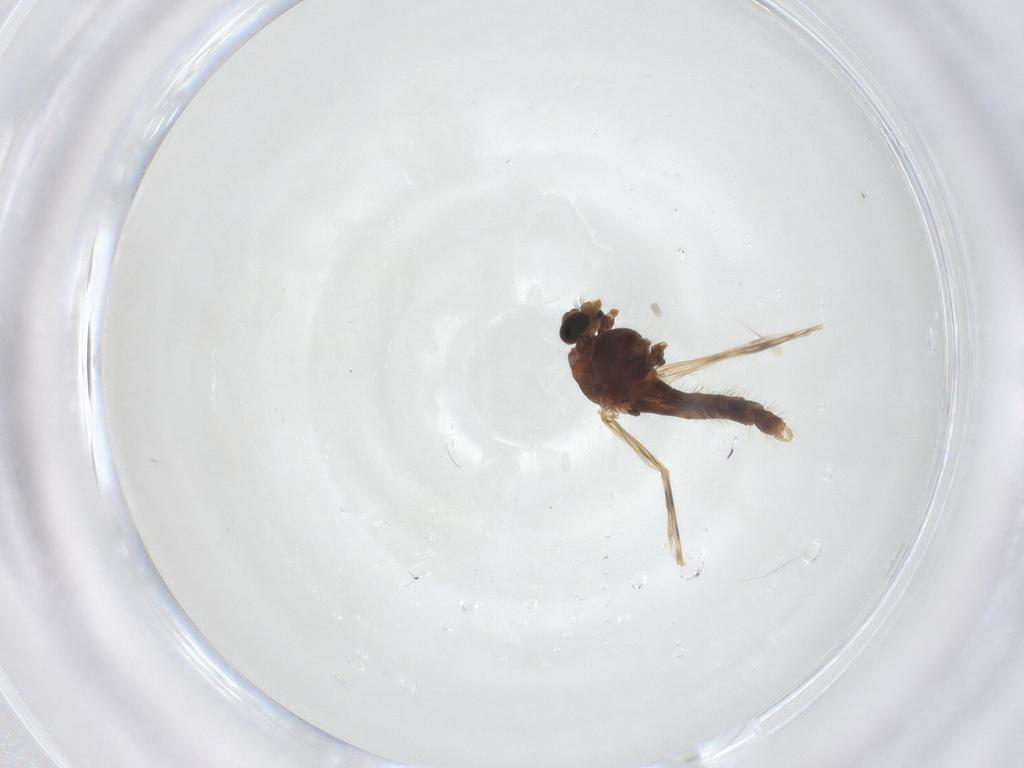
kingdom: Animalia
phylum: Arthropoda
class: Insecta
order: Diptera
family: Chironomidae
